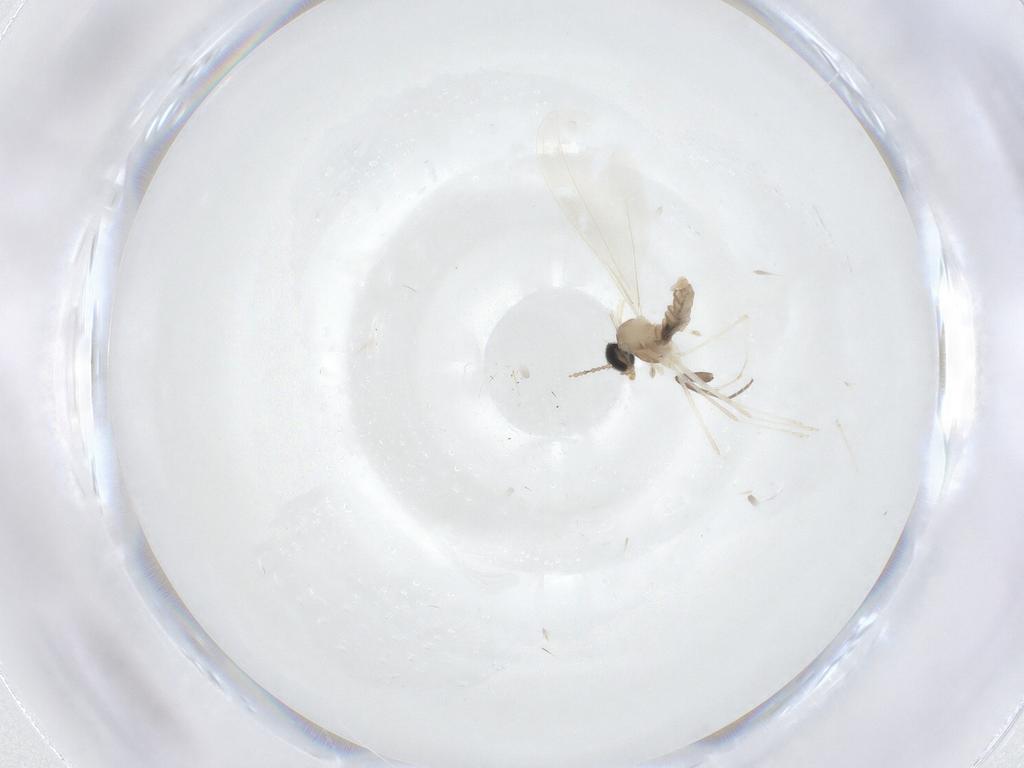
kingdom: Animalia
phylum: Arthropoda
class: Insecta
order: Diptera
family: Cecidomyiidae
